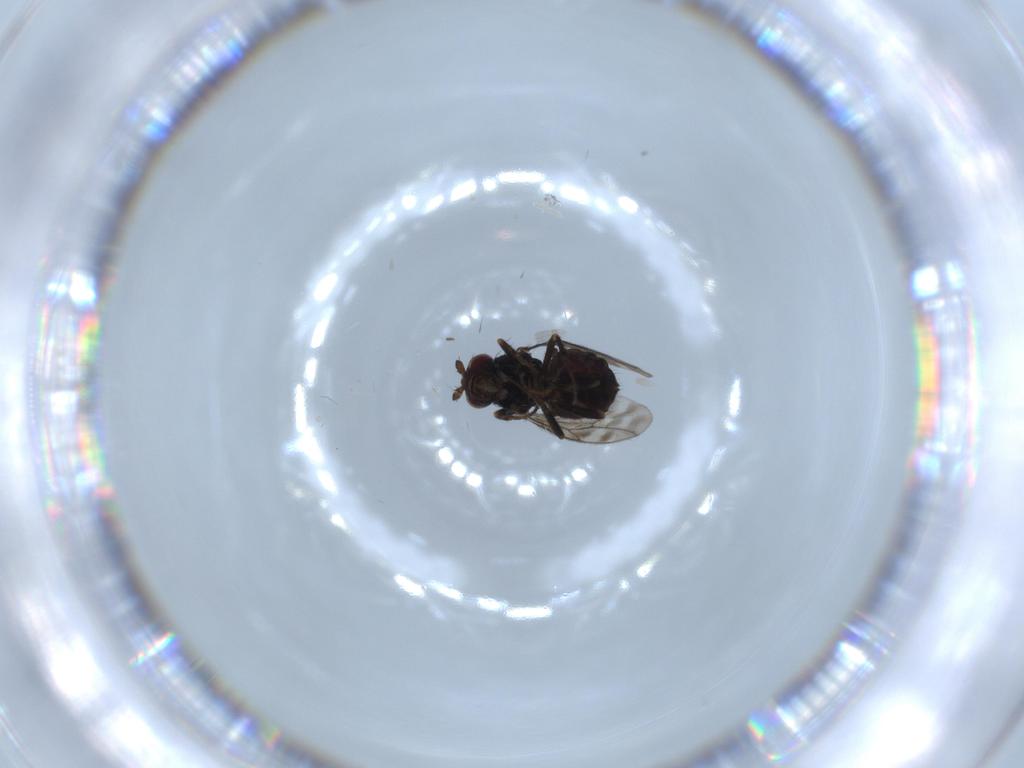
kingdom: Animalia
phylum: Arthropoda
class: Insecta
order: Diptera
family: Sphaeroceridae
